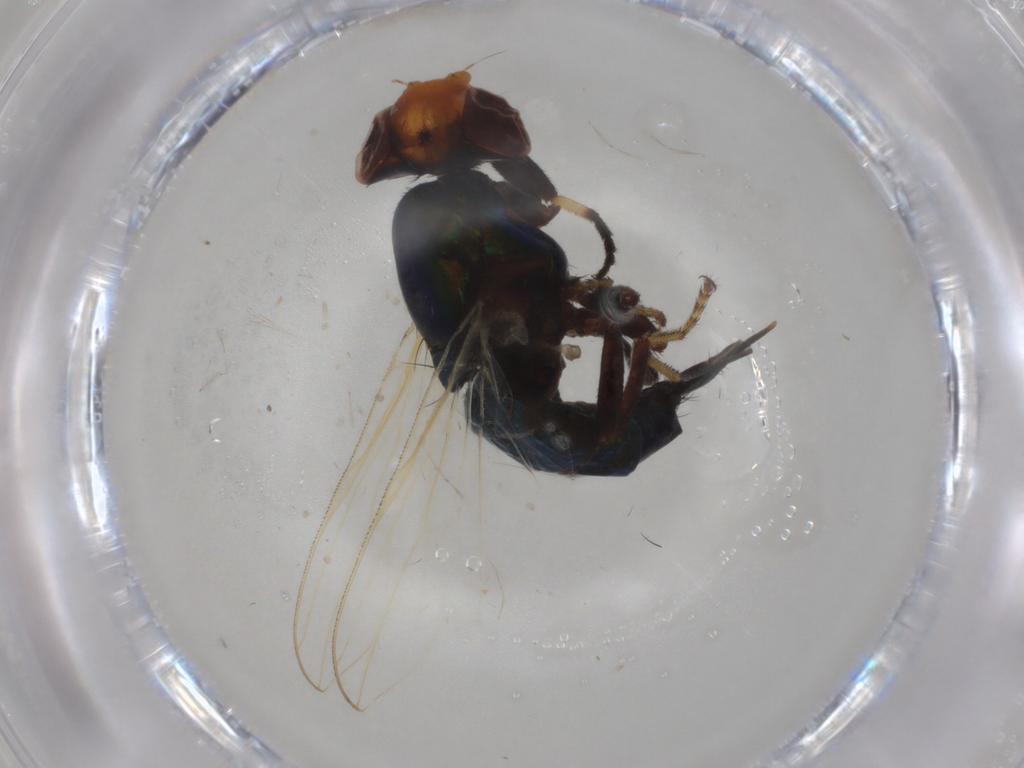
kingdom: Animalia
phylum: Arthropoda
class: Insecta
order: Diptera
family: Cecidomyiidae
